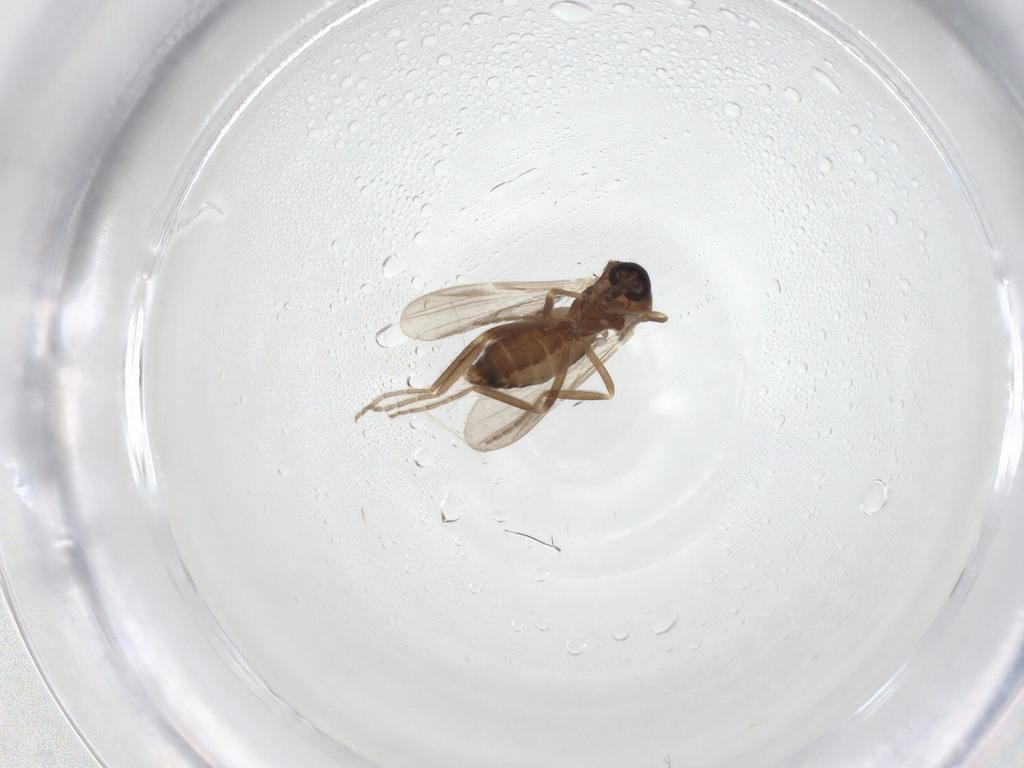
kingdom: Animalia
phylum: Arthropoda
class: Insecta
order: Diptera
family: Ceratopogonidae
